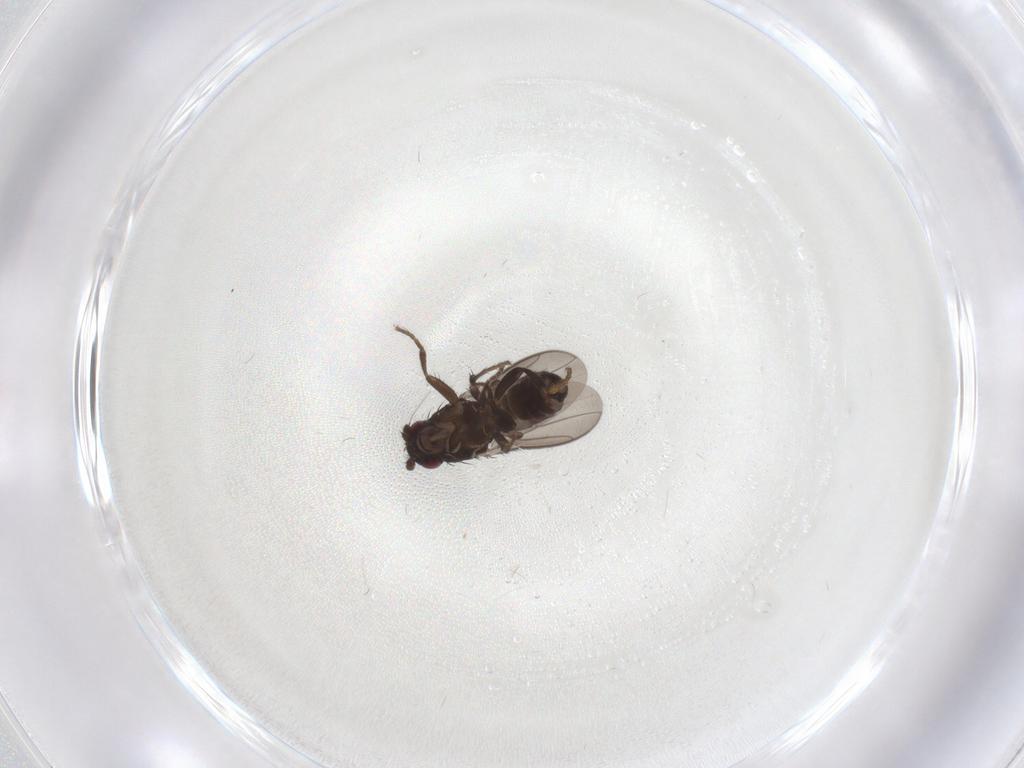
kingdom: Animalia
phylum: Arthropoda
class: Insecta
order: Diptera
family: Sphaeroceridae
